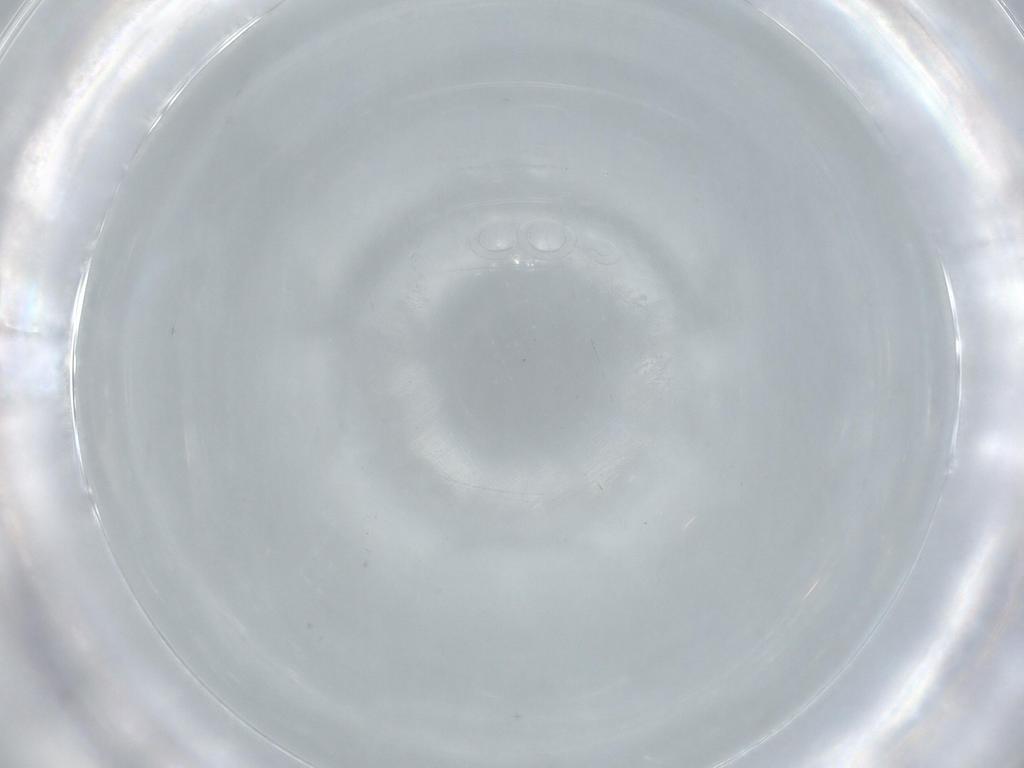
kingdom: Animalia
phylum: Arthropoda
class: Insecta
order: Diptera
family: Milichiidae
